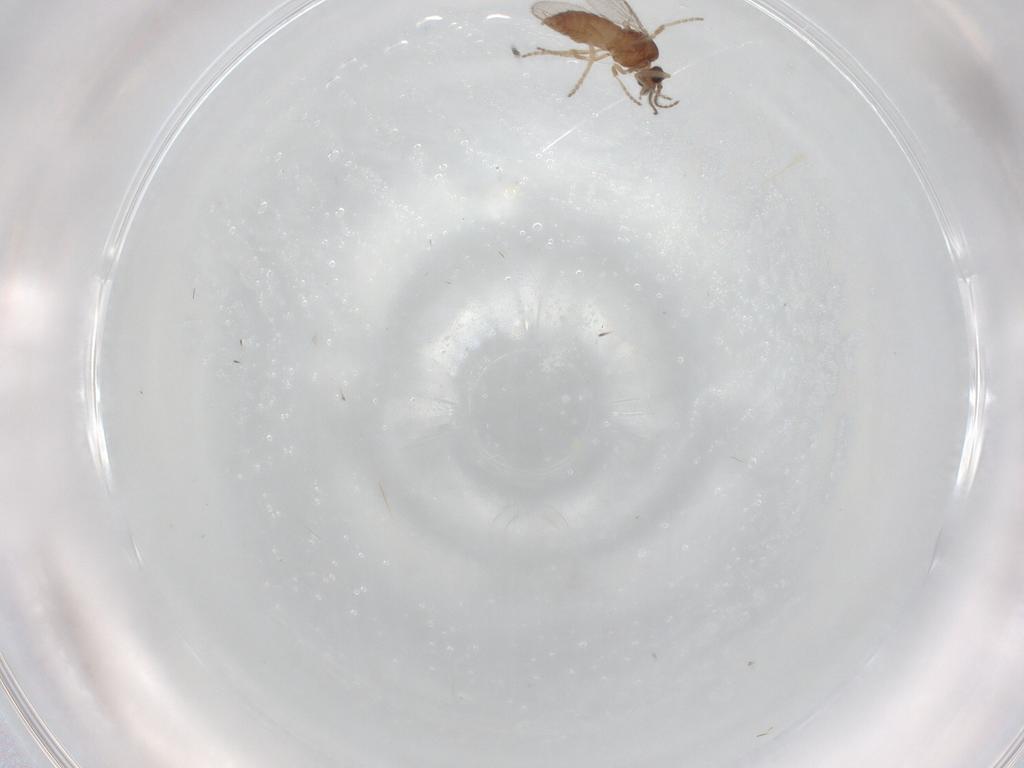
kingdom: Animalia
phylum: Arthropoda
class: Insecta
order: Diptera
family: Ceratopogonidae
